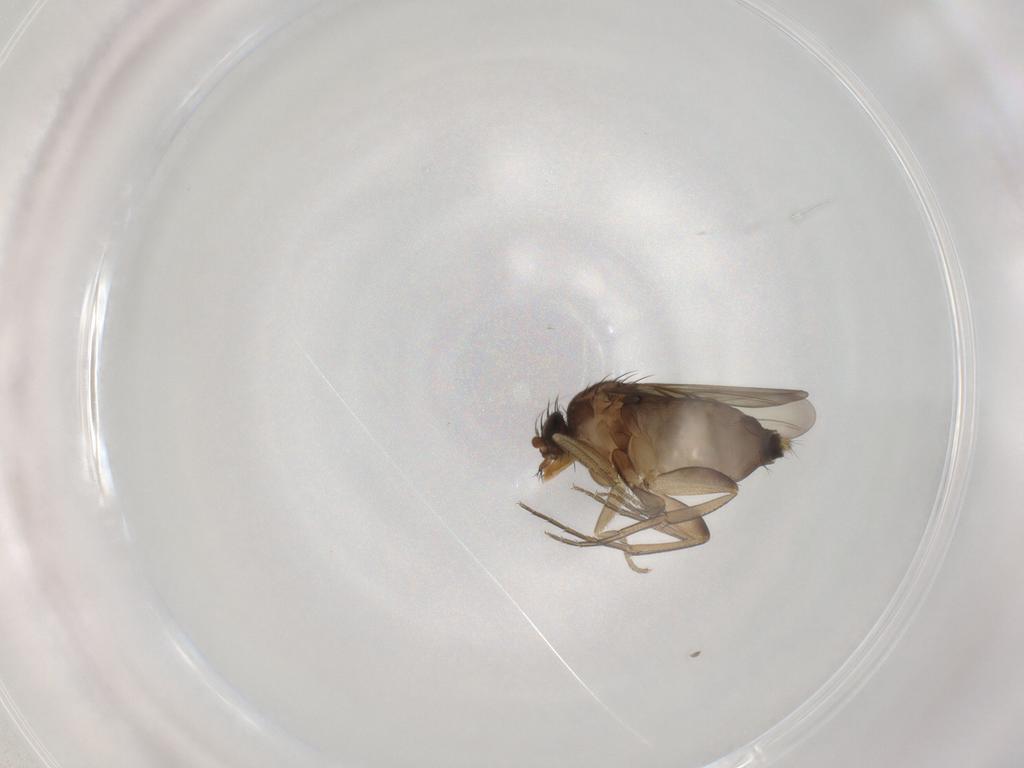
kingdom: Animalia
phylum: Arthropoda
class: Insecta
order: Diptera
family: Phoridae
